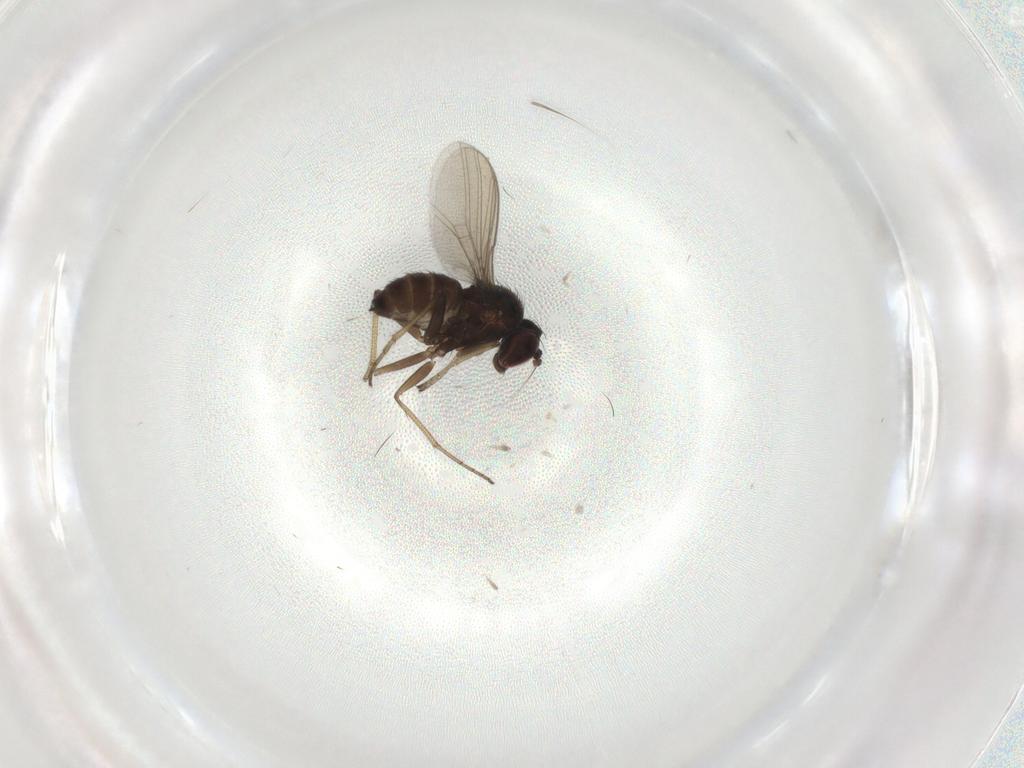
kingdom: Animalia
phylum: Arthropoda
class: Insecta
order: Diptera
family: Dolichopodidae
